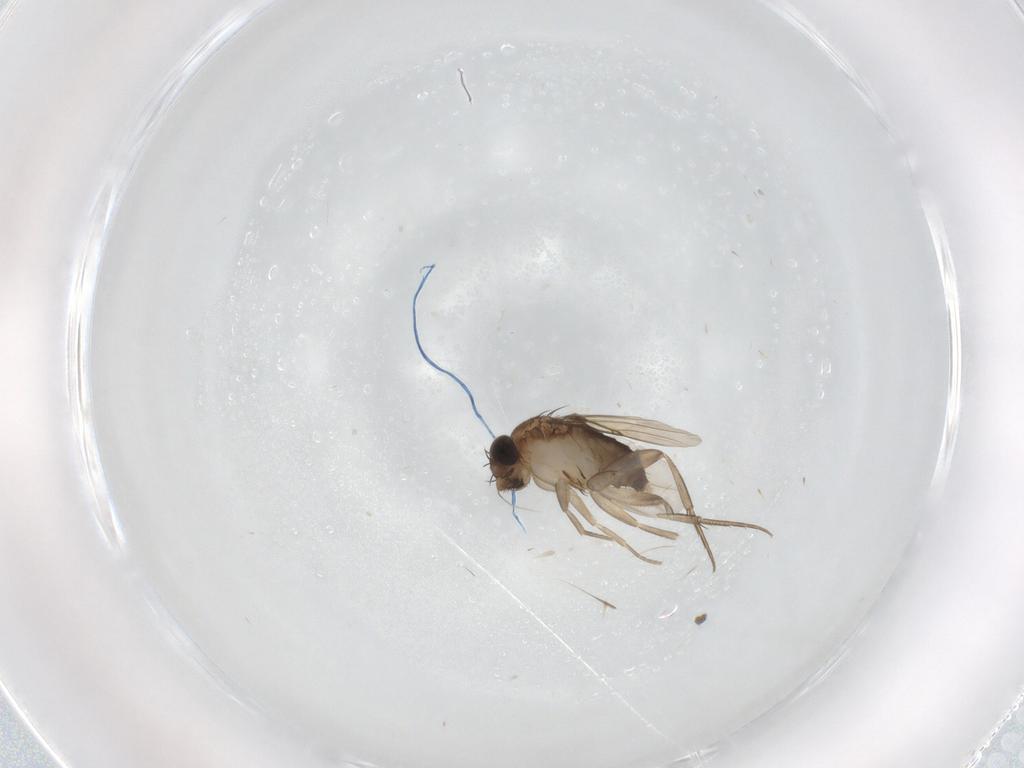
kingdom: Animalia
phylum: Arthropoda
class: Insecta
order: Diptera
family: Phoridae
